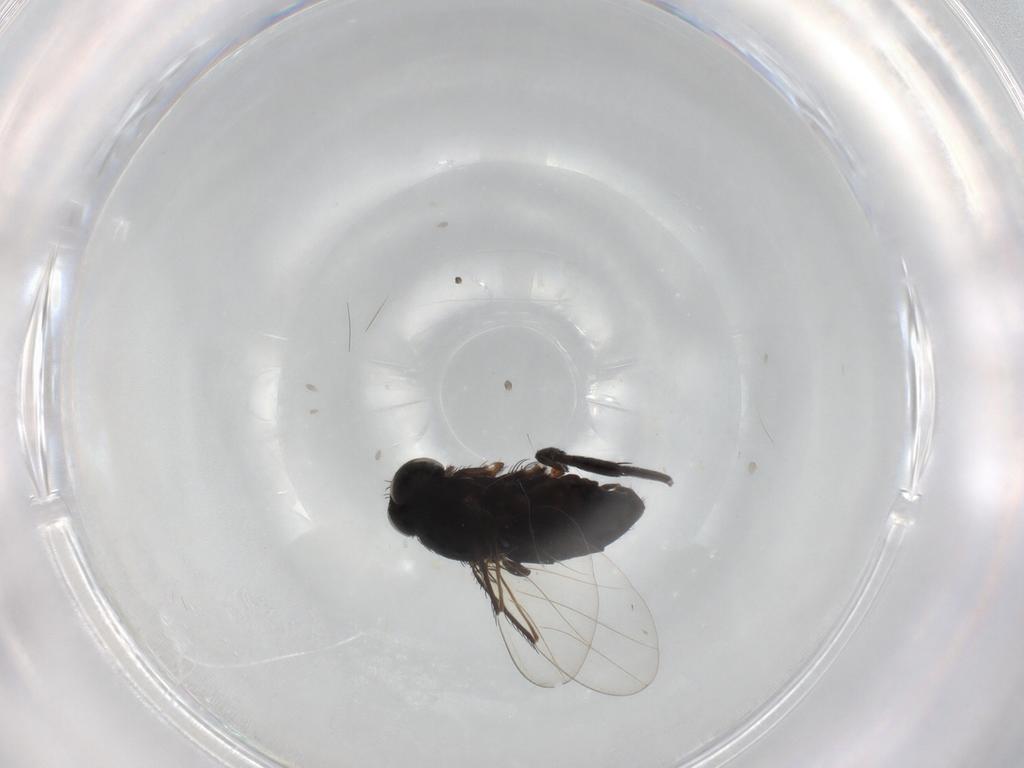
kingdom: Animalia
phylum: Arthropoda
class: Insecta
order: Diptera
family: Phoridae
